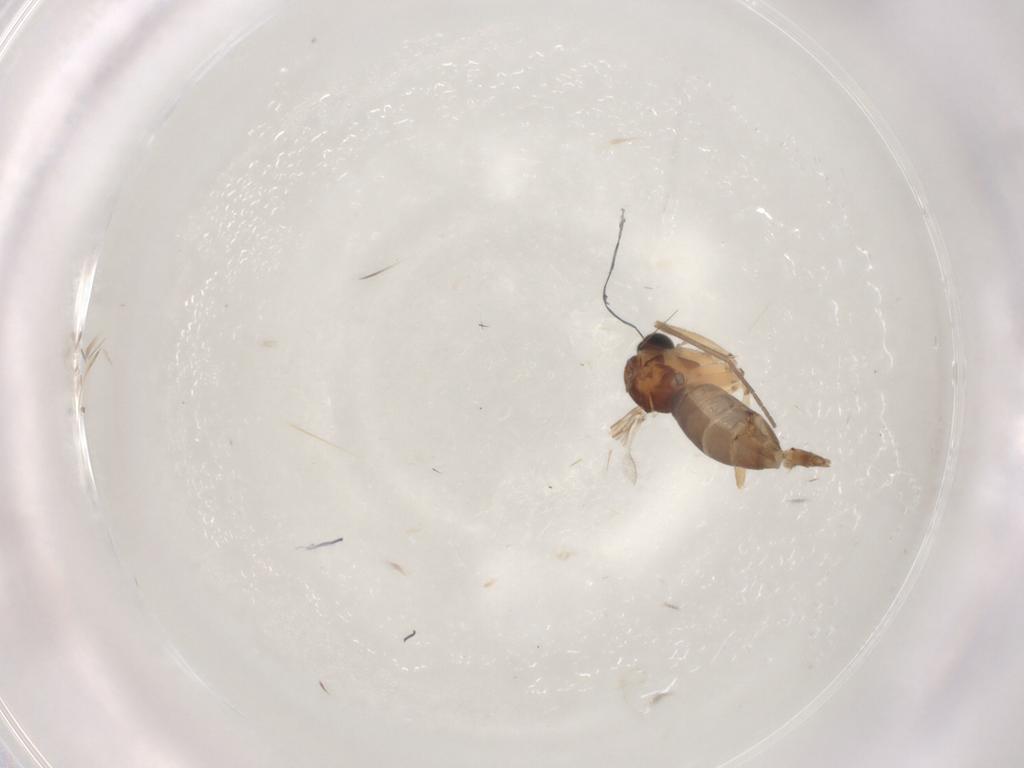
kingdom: Animalia
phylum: Arthropoda
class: Insecta
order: Diptera
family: Sciaridae
